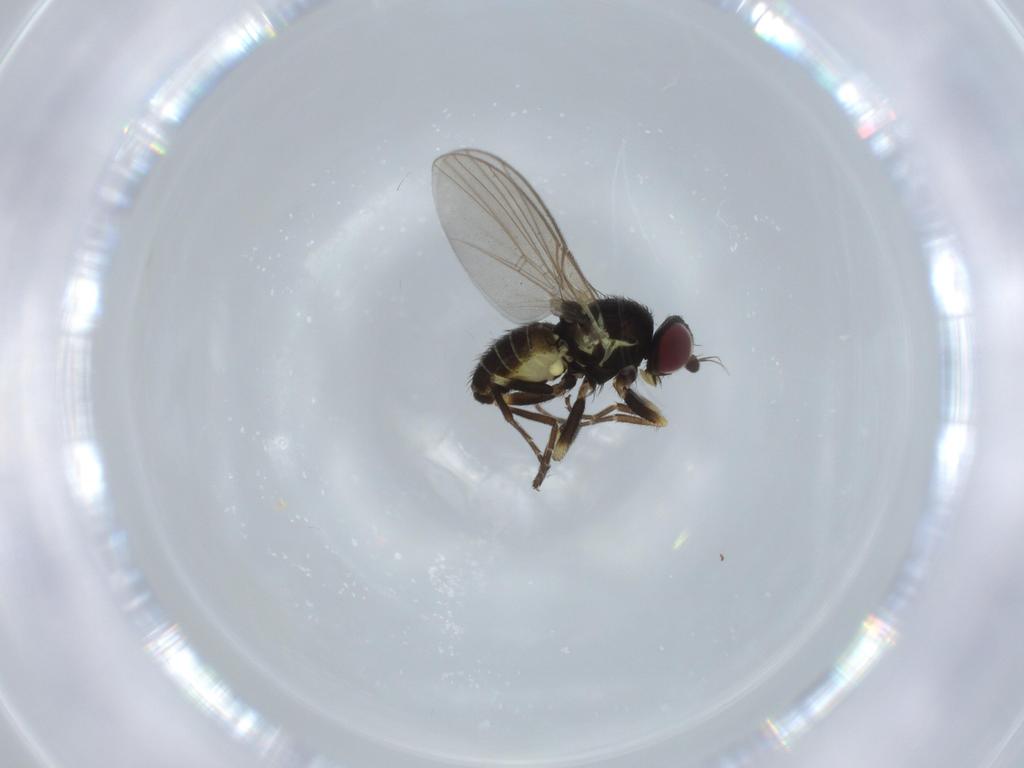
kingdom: Animalia
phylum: Arthropoda
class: Insecta
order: Diptera
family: Agromyzidae
